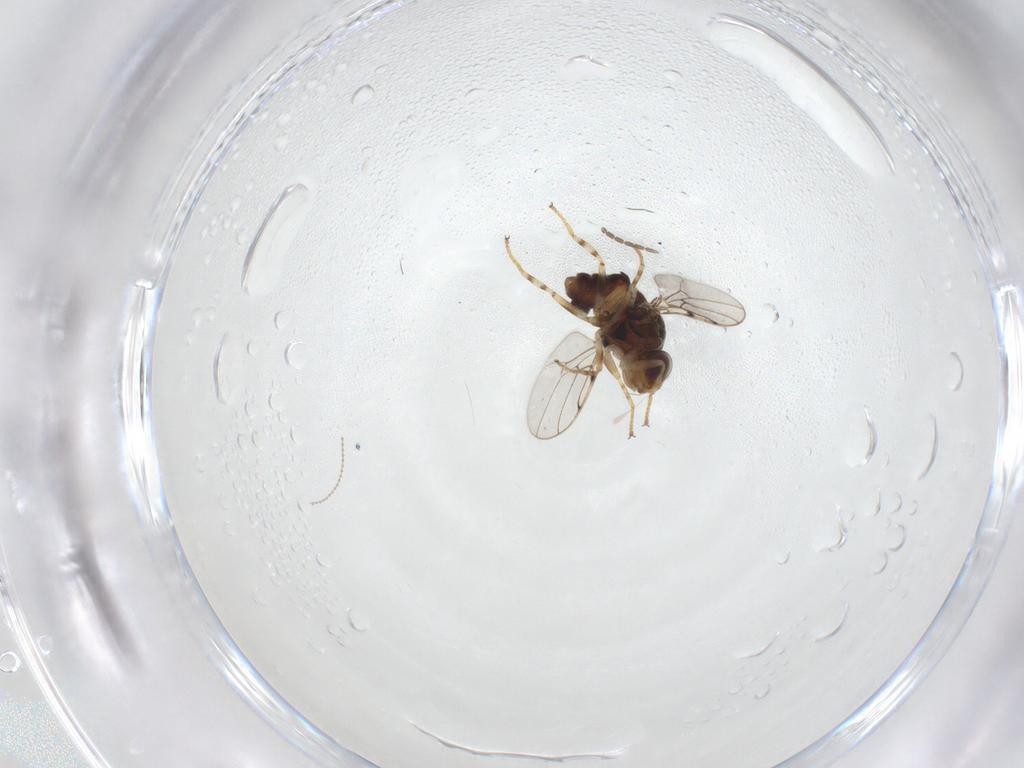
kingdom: Animalia
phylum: Arthropoda
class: Insecta
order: Diptera
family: Chloropidae
